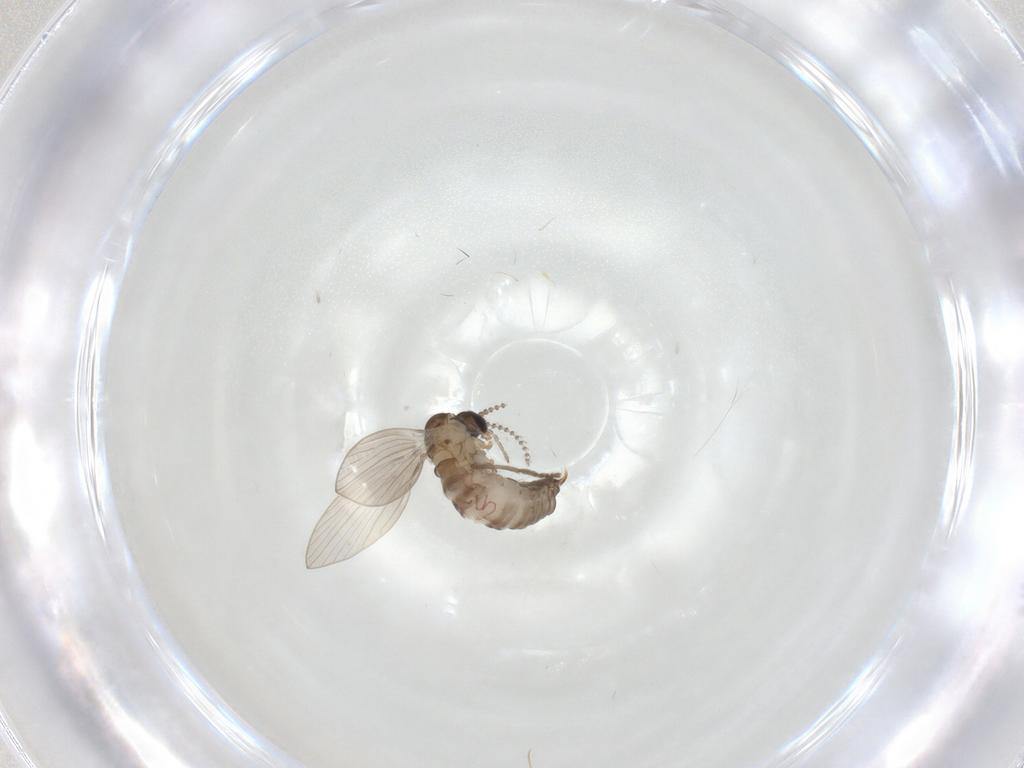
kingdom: Animalia
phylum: Arthropoda
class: Insecta
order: Diptera
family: Psychodidae
